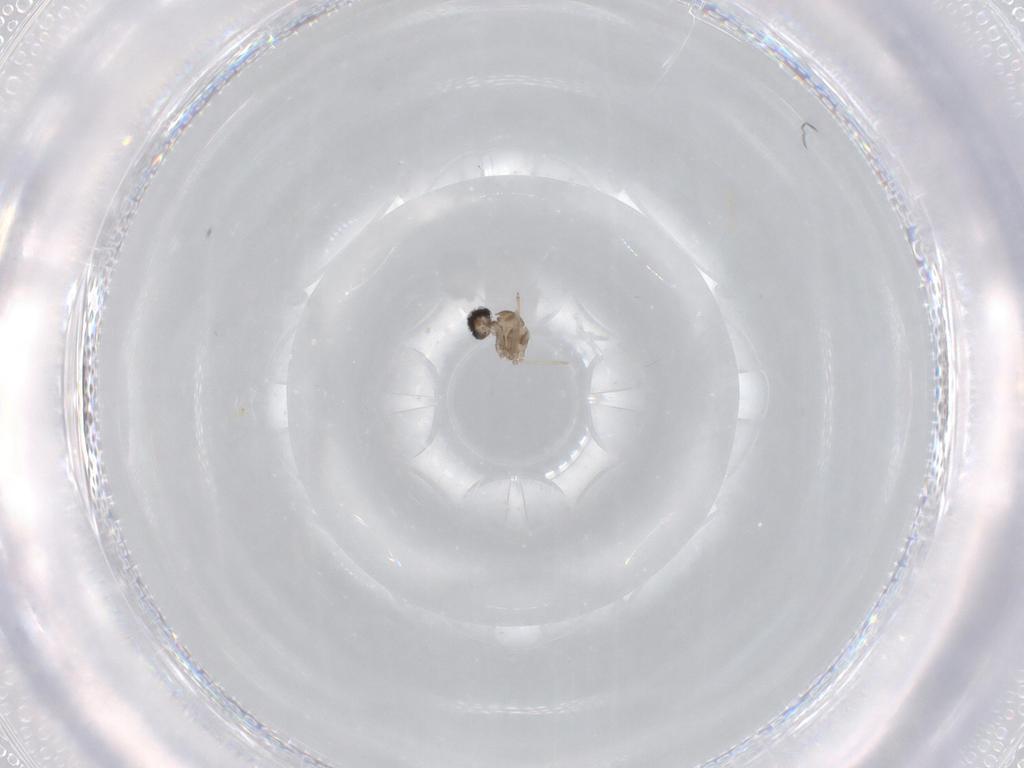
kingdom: Animalia
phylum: Arthropoda
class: Insecta
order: Diptera
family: Cecidomyiidae
